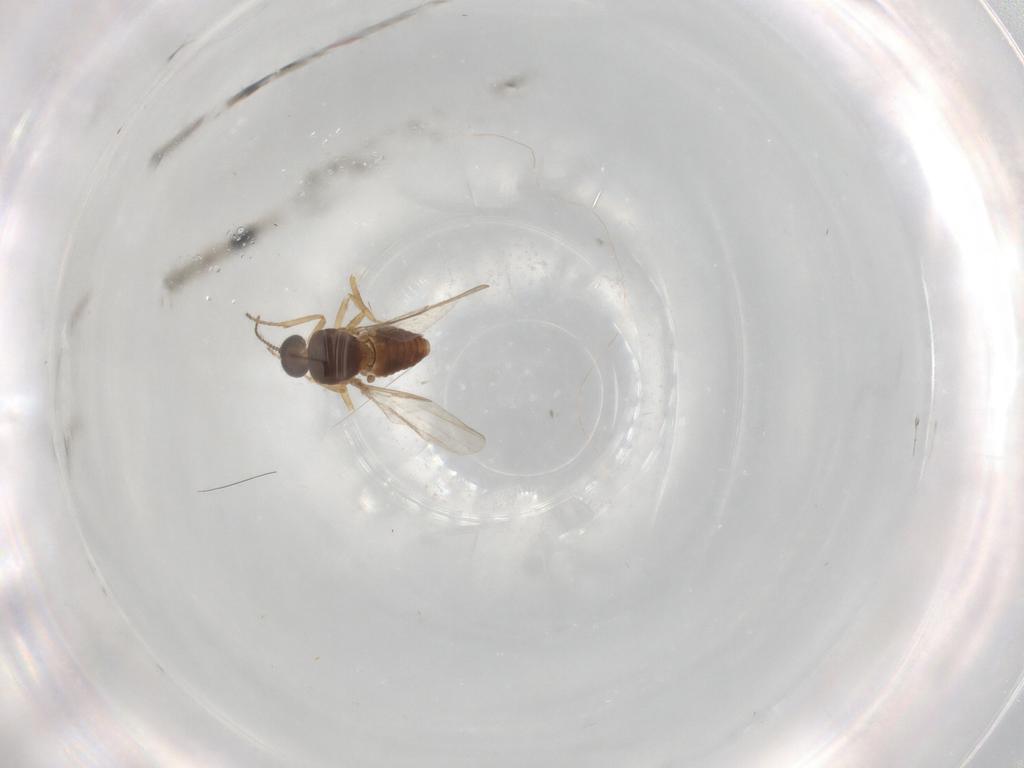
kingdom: Animalia
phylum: Arthropoda
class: Insecta
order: Diptera
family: Ceratopogonidae
